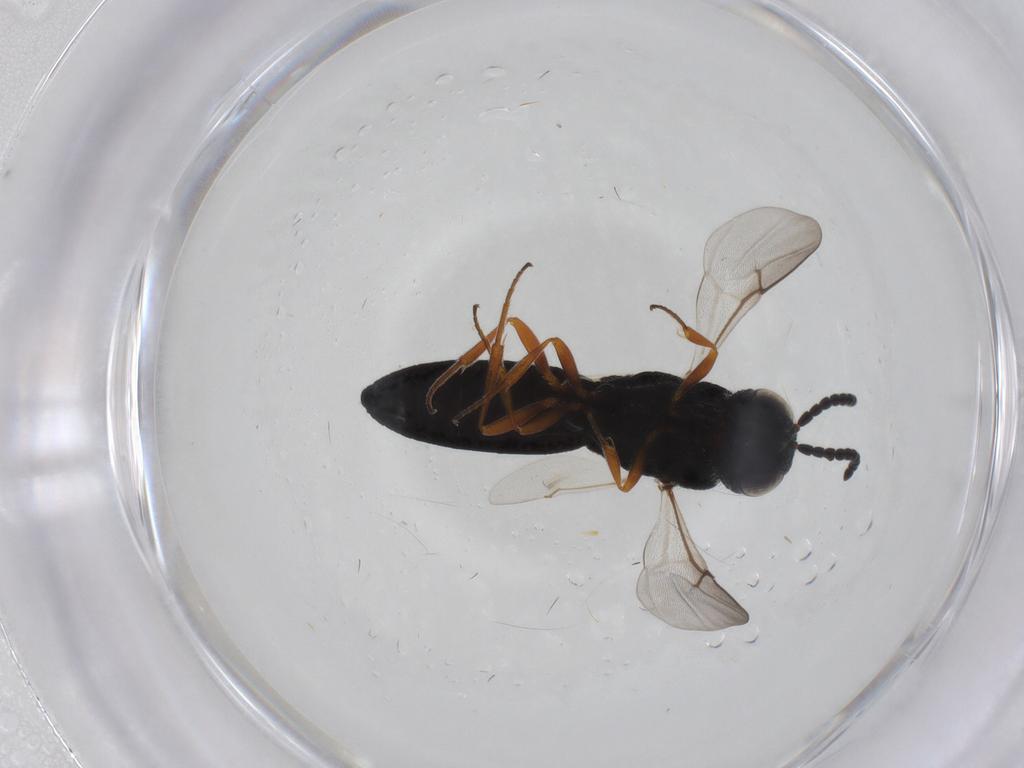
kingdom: Animalia
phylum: Arthropoda
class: Insecta
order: Hymenoptera
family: Scelionidae
